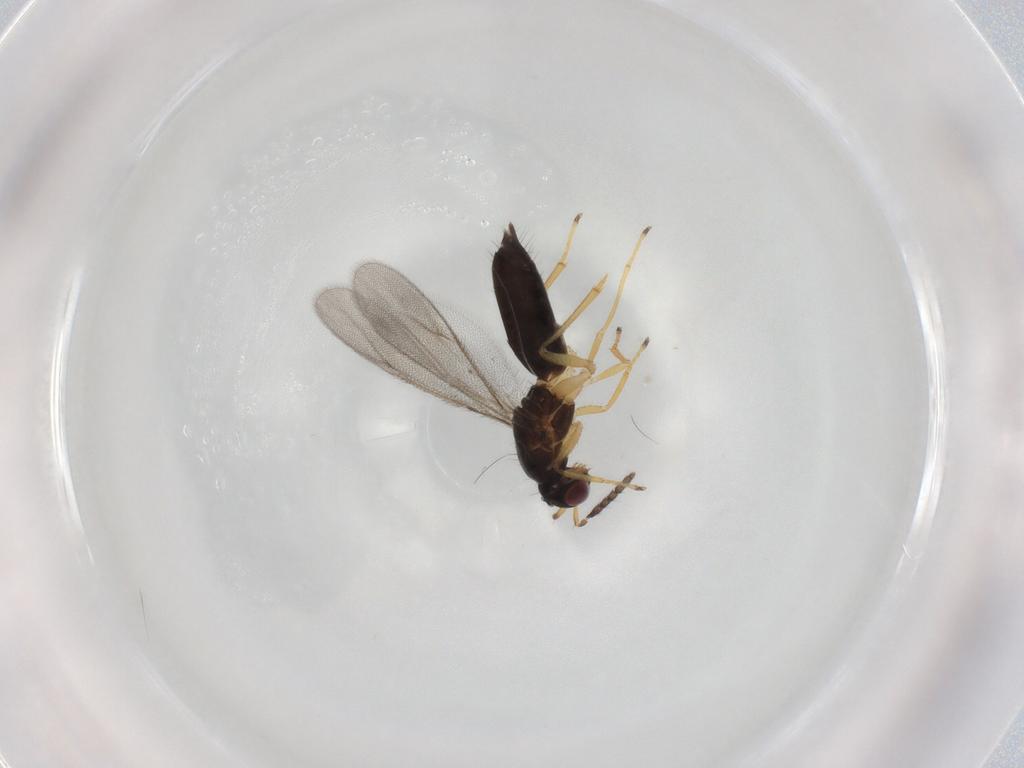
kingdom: Animalia
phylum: Arthropoda
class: Insecta
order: Hymenoptera
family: Eulophidae
